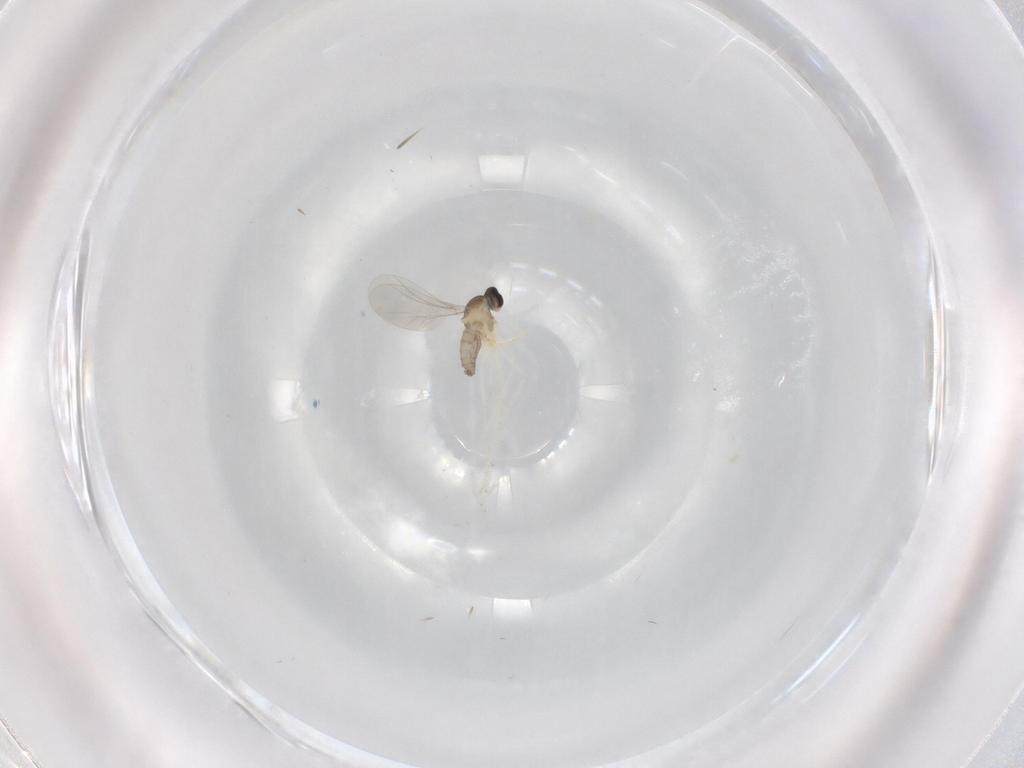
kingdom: Animalia
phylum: Arthropoda
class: Insecta
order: Diptera
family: Cecidomyiidae
